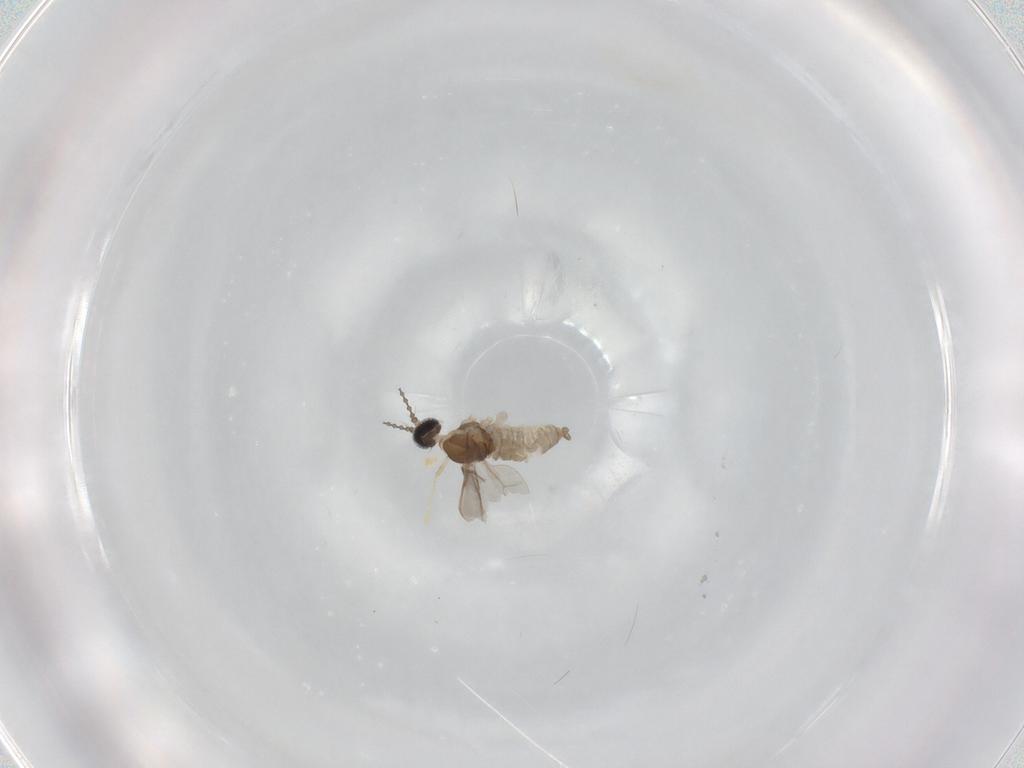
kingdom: Animalia
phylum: Arthropoda
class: Insecta
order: Diptera
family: Cecidomyiidae
